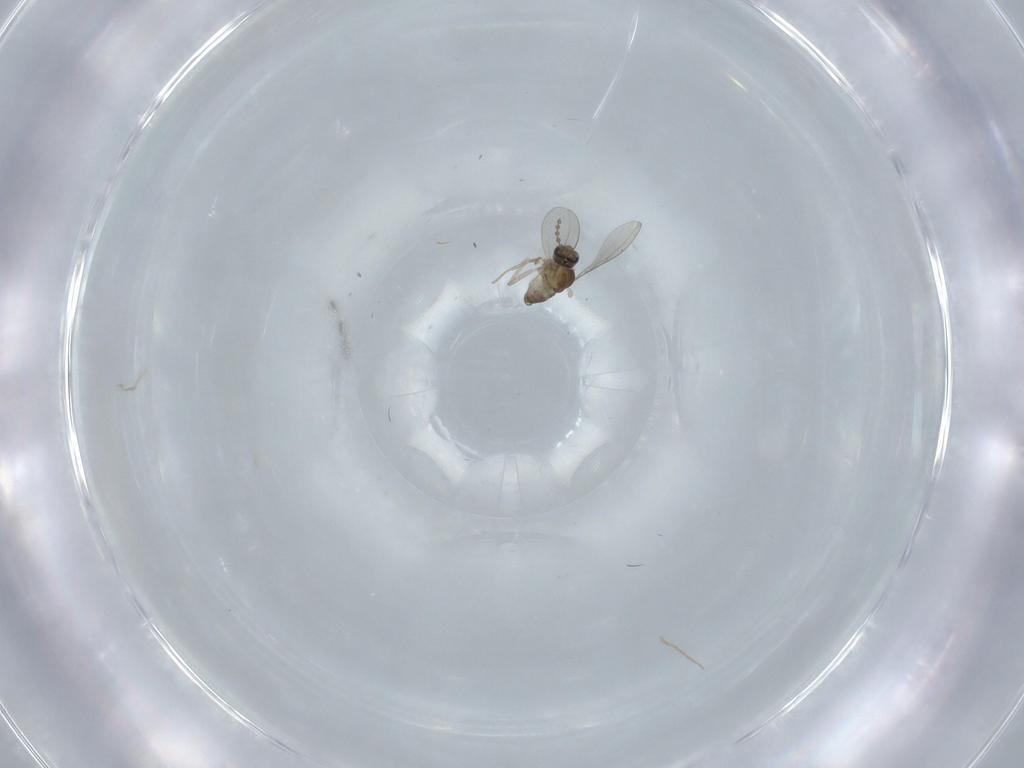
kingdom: Animalia
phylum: Arthropoda
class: Insecta
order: Diptera
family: Cecidomyiidae
